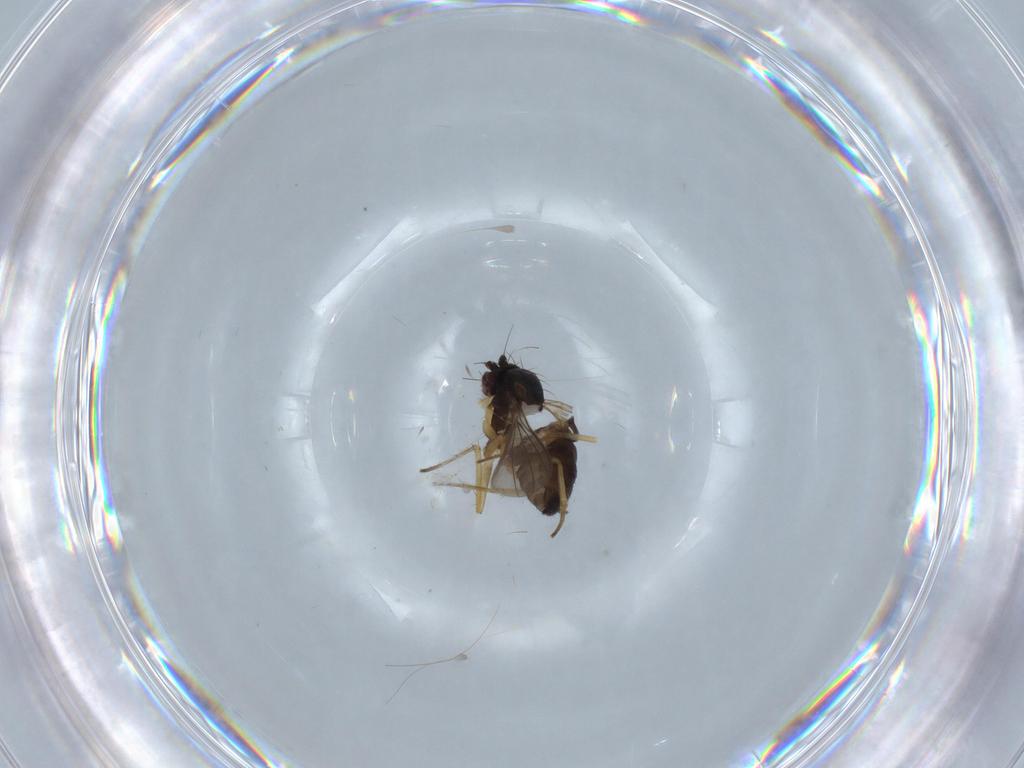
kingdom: Animalia
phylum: Arthropoda
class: Insecta
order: Diptera
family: Dolichopodidae
